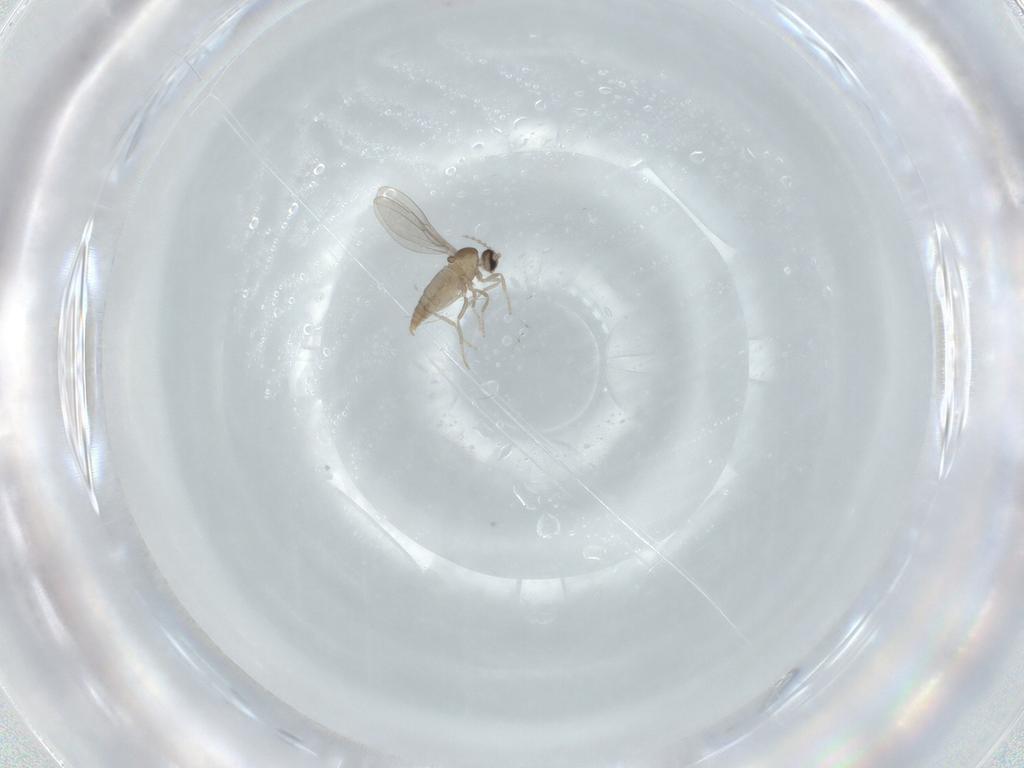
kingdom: Animalia
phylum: Arthropoda
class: Insecta
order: Diptera
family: Cecidomyiidae
